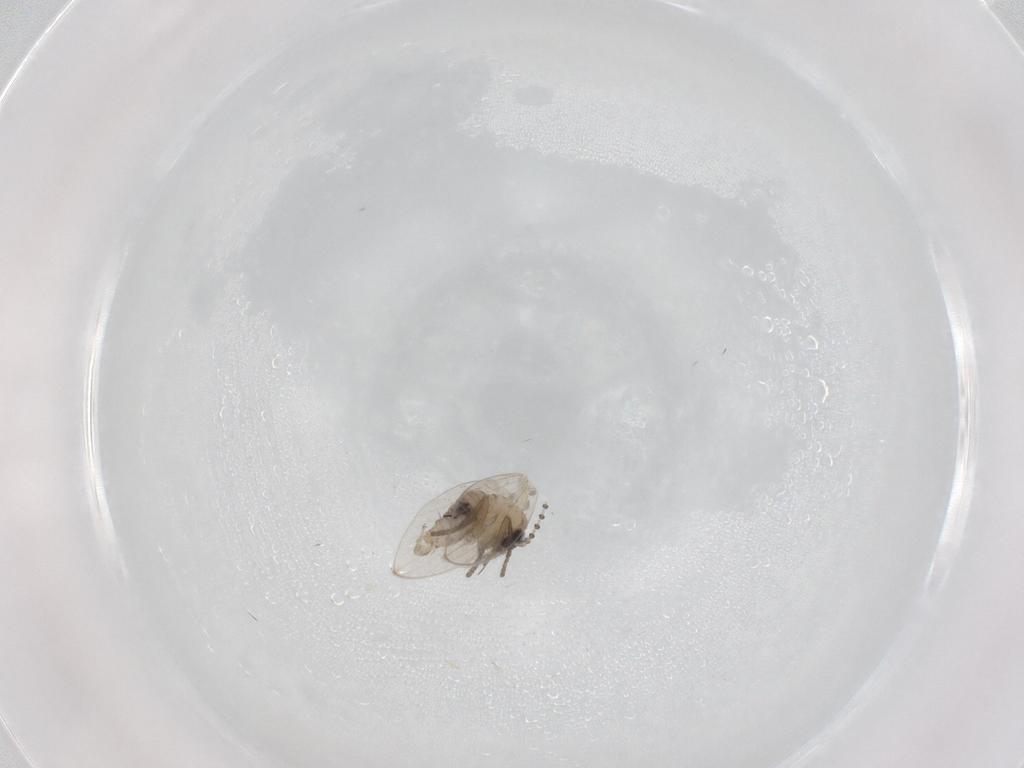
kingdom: Animalia
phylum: Arthropoda
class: Insecta
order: Diptera
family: Psychodidae
